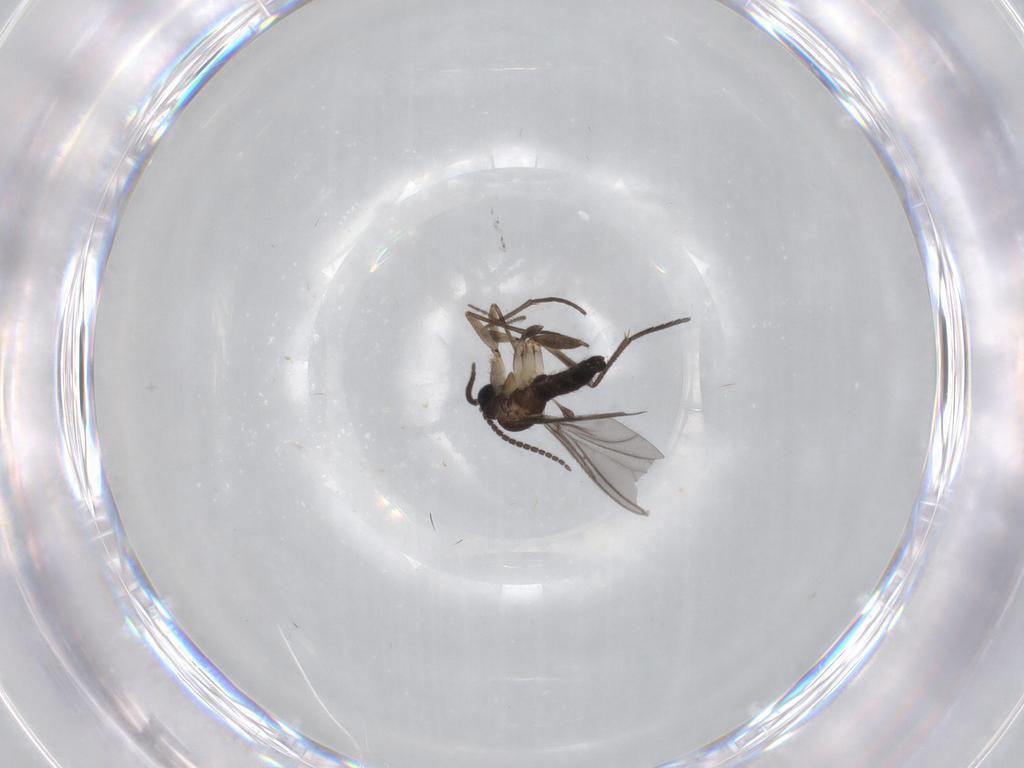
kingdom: Animalia
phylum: Arthropoda
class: Insecta
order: Diptera
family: Sciaridae
